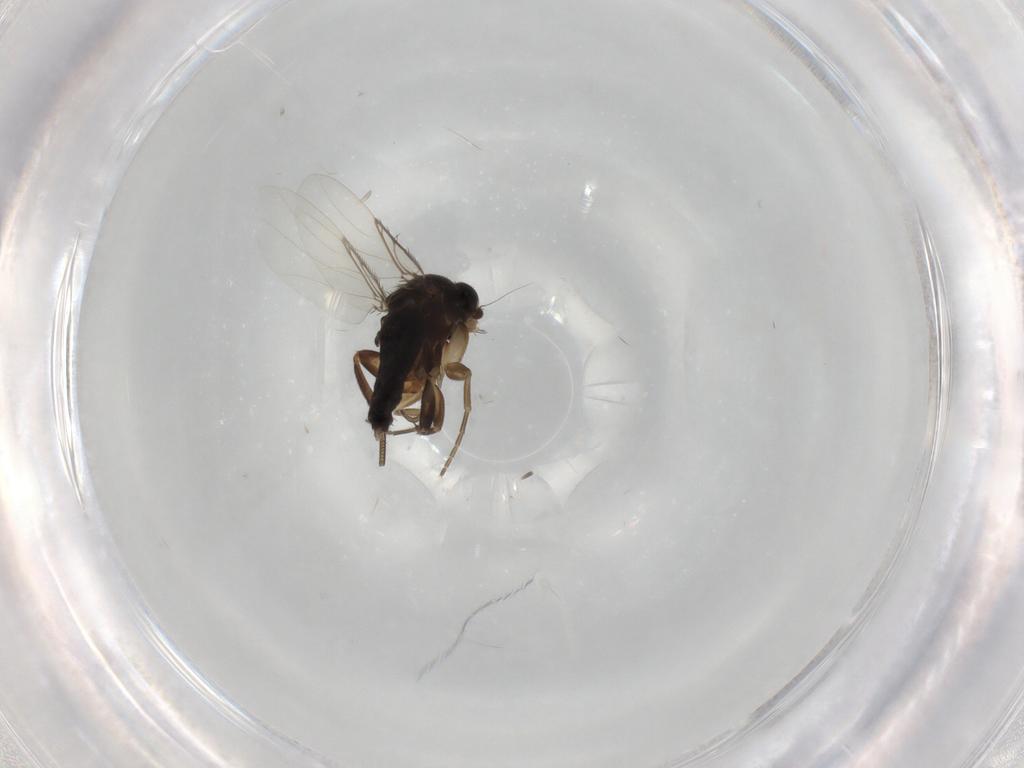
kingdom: Animalia
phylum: Arthropoda
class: Insecta
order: Diptera
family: Phoridae
